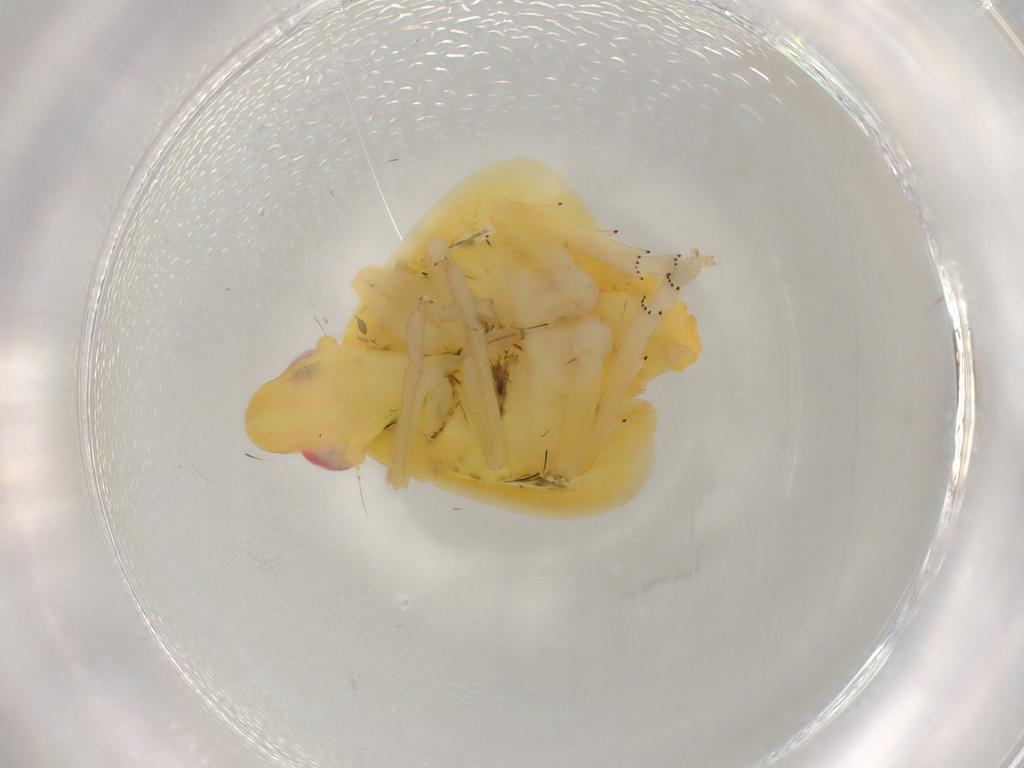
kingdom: Animalia
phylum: Arthropoda
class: Insecta
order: Hemiptera
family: Tropiduchidae
